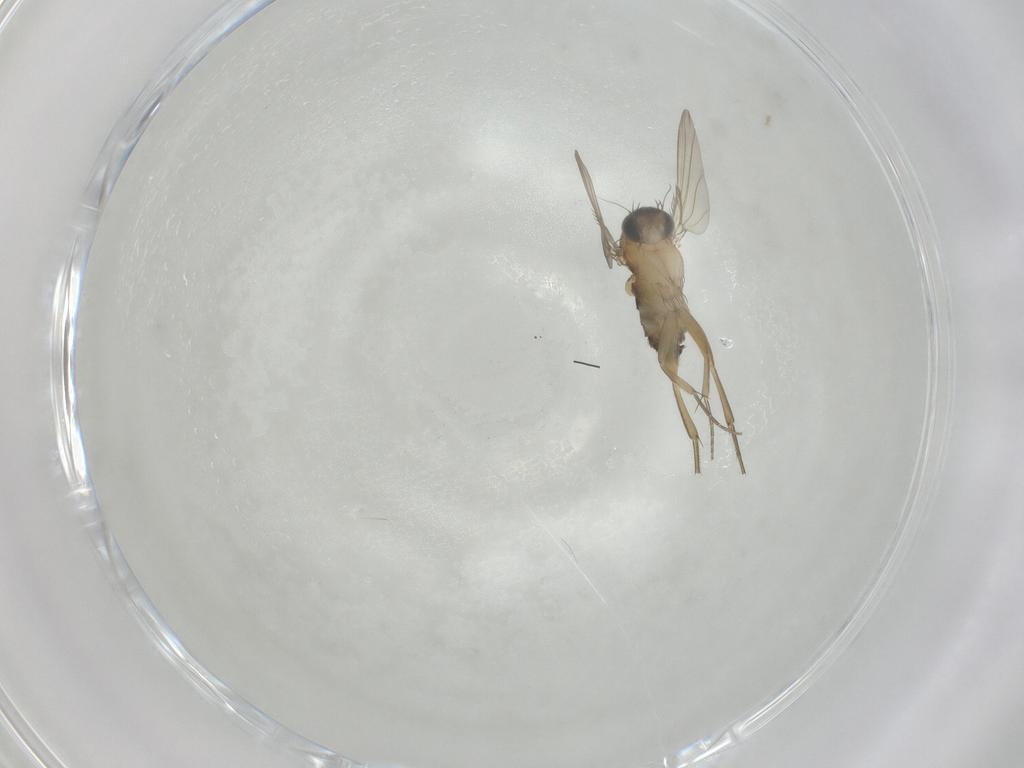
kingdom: Animalia
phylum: Arthropoda
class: Insecta
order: Diptera
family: Phoridae
